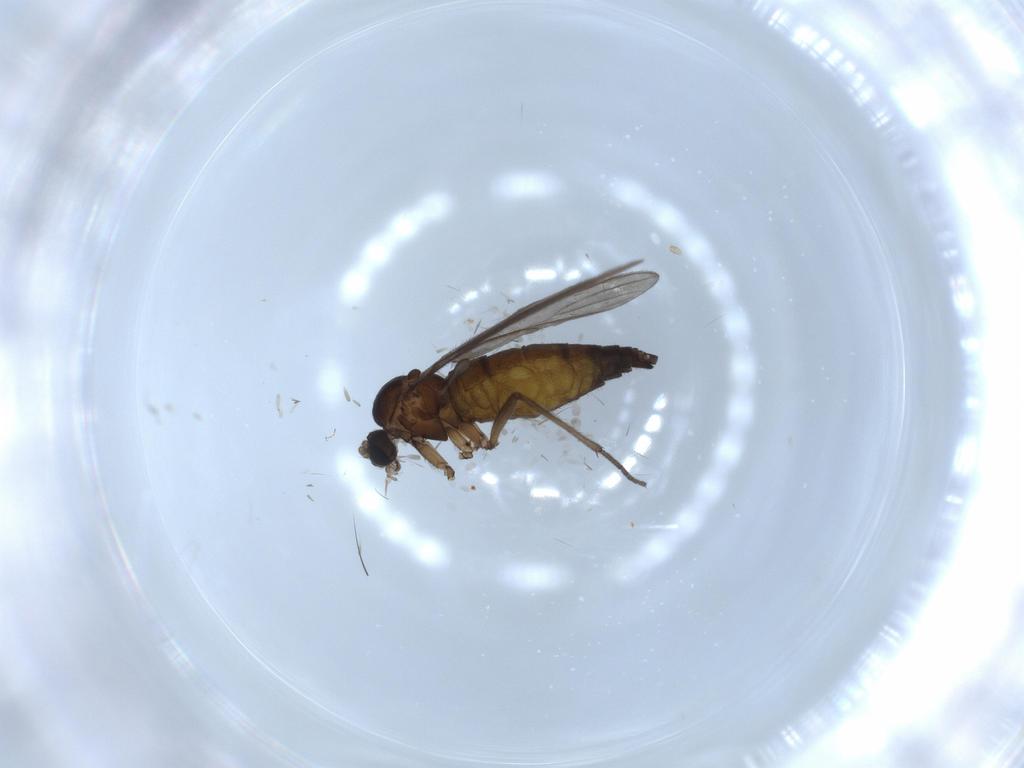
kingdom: Animalia
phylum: Arthropoda
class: Insecta
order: Diptera
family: Sciaridae
